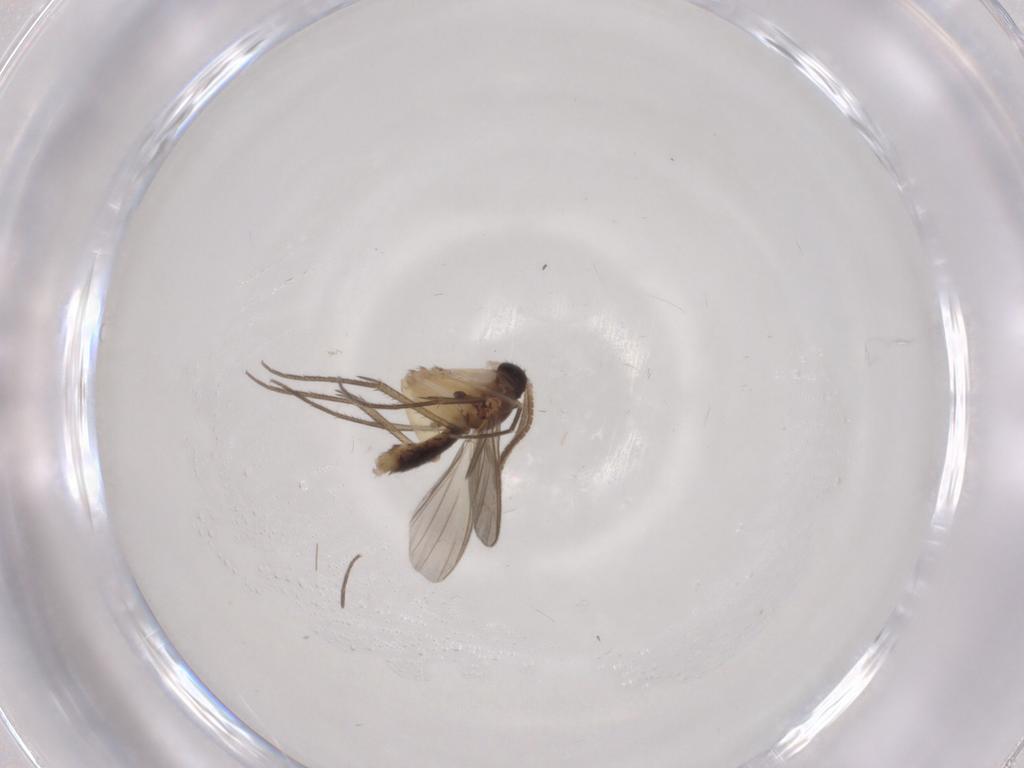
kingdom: Animalia
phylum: Arthropoda
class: Insecta
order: Diptera
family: Mycetophilidae
